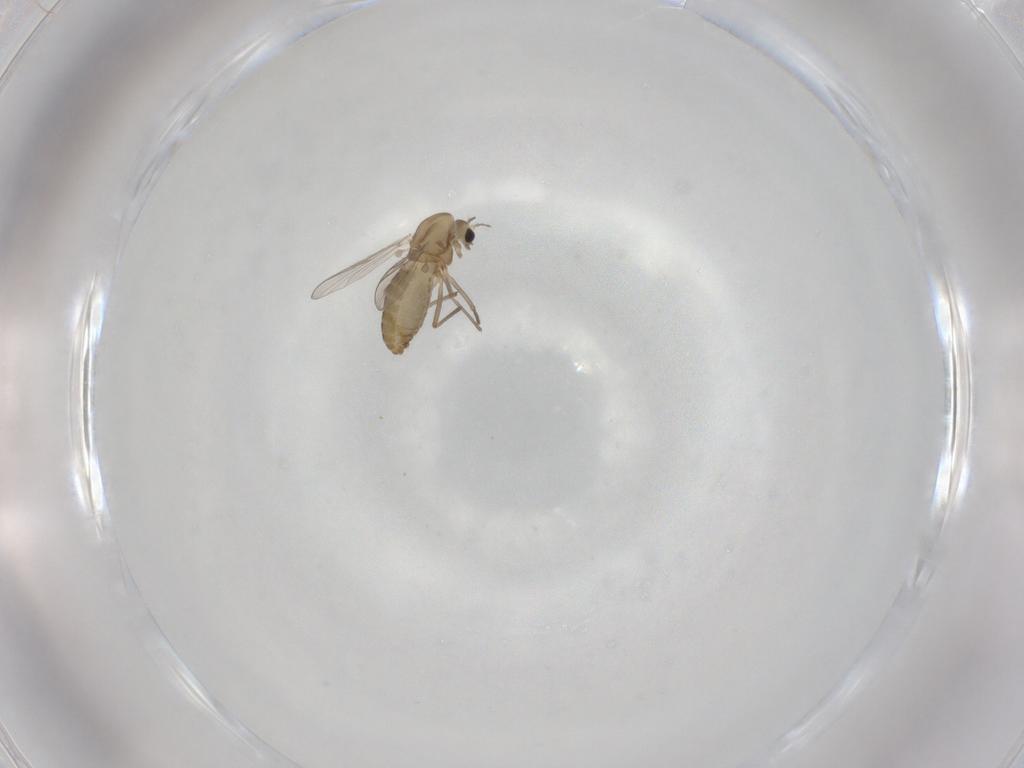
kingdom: Animalia
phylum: Arthropoda
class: Insecta
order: Diptera
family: Chironomidae
